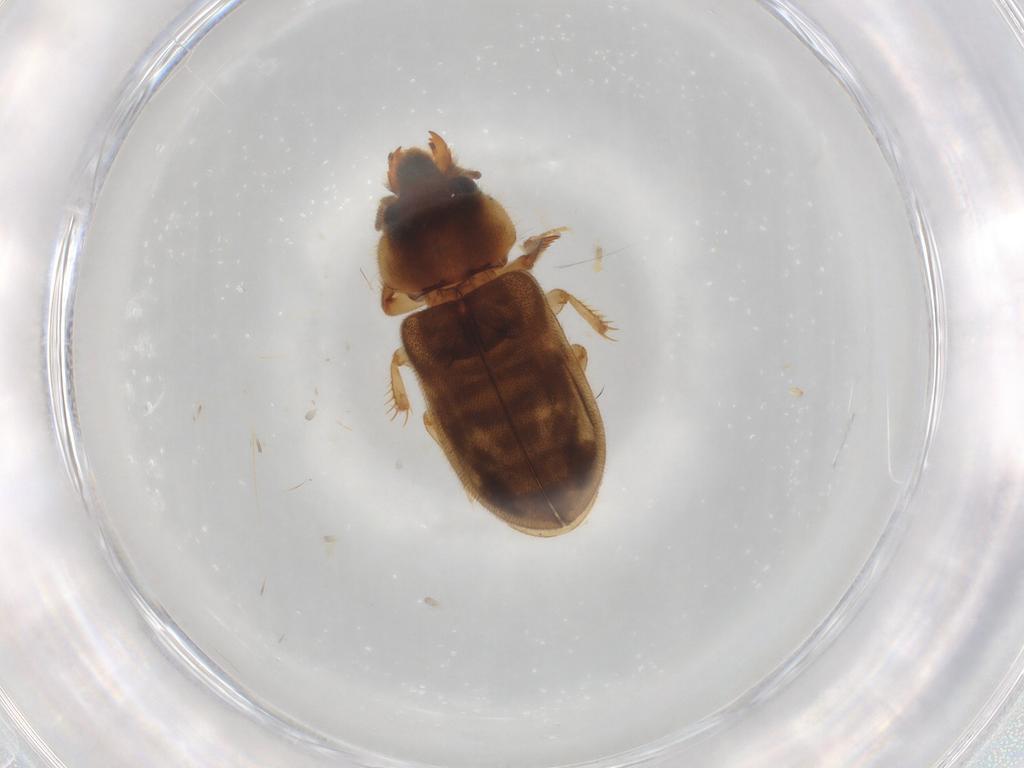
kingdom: Animalia
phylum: Arthropoda
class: Insecta
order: Coleoptera
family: Heteroceridae
